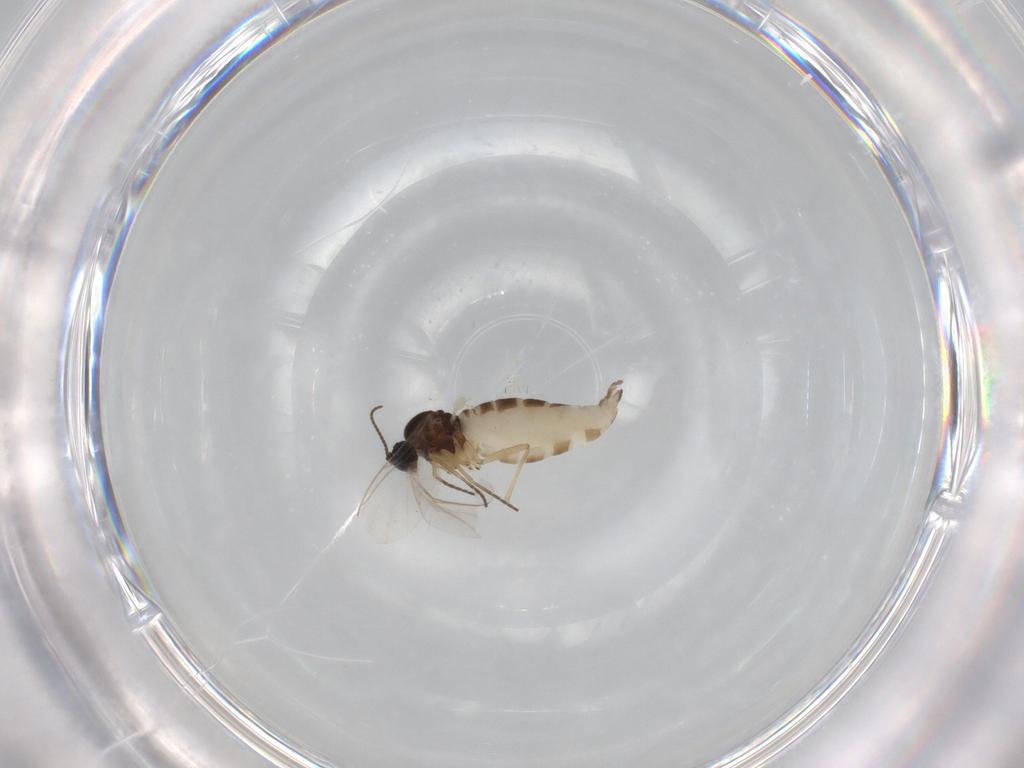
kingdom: Animalia
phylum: Arthropoda
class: Insecta
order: Diptera
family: Sciaridae
